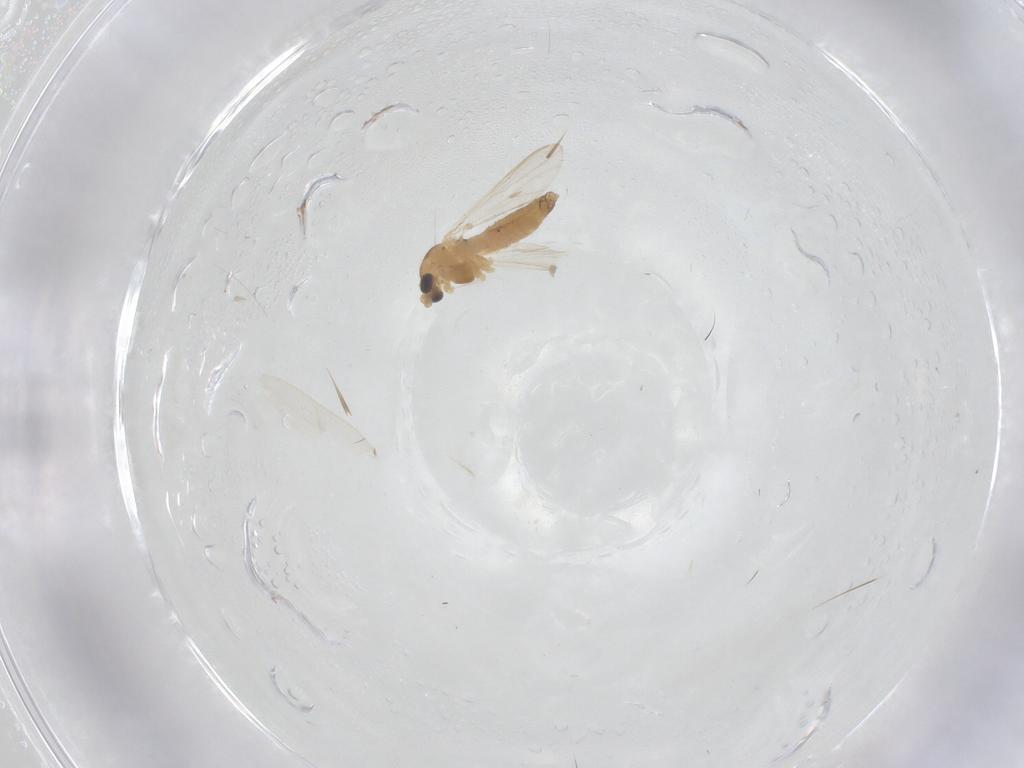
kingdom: Animalia
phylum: Arthropoda
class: Insecta
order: Diptera
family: Chironomidae
